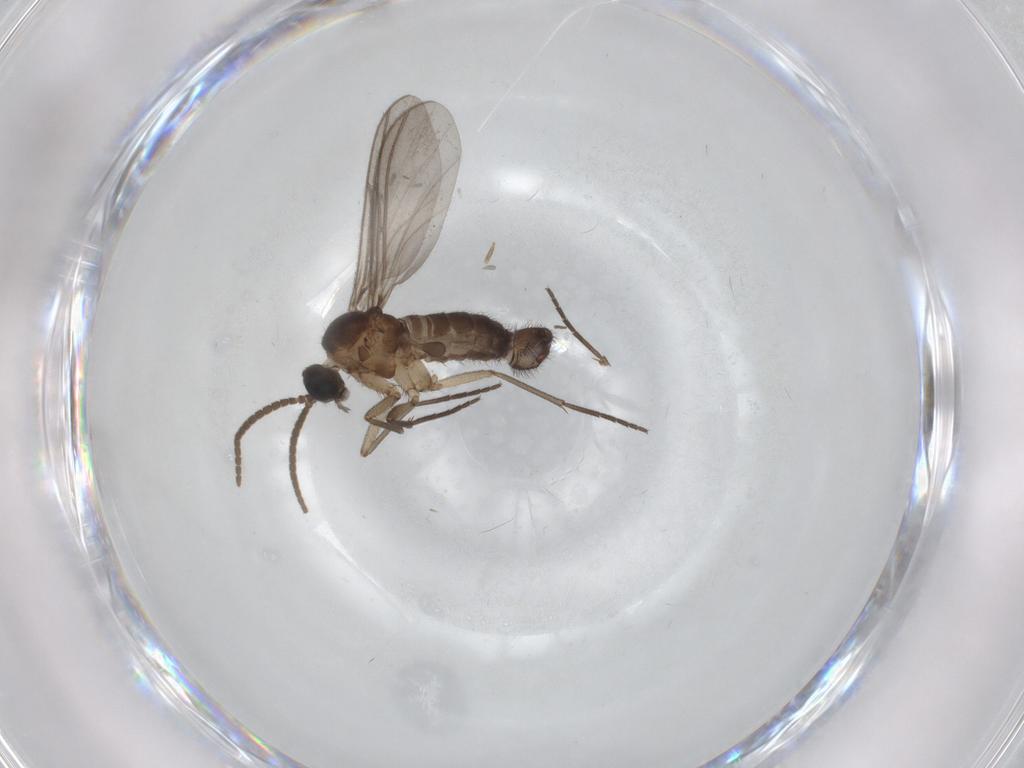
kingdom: Animalia
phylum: Arthropoda
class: Insecta
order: Diptera
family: Sciaridae
